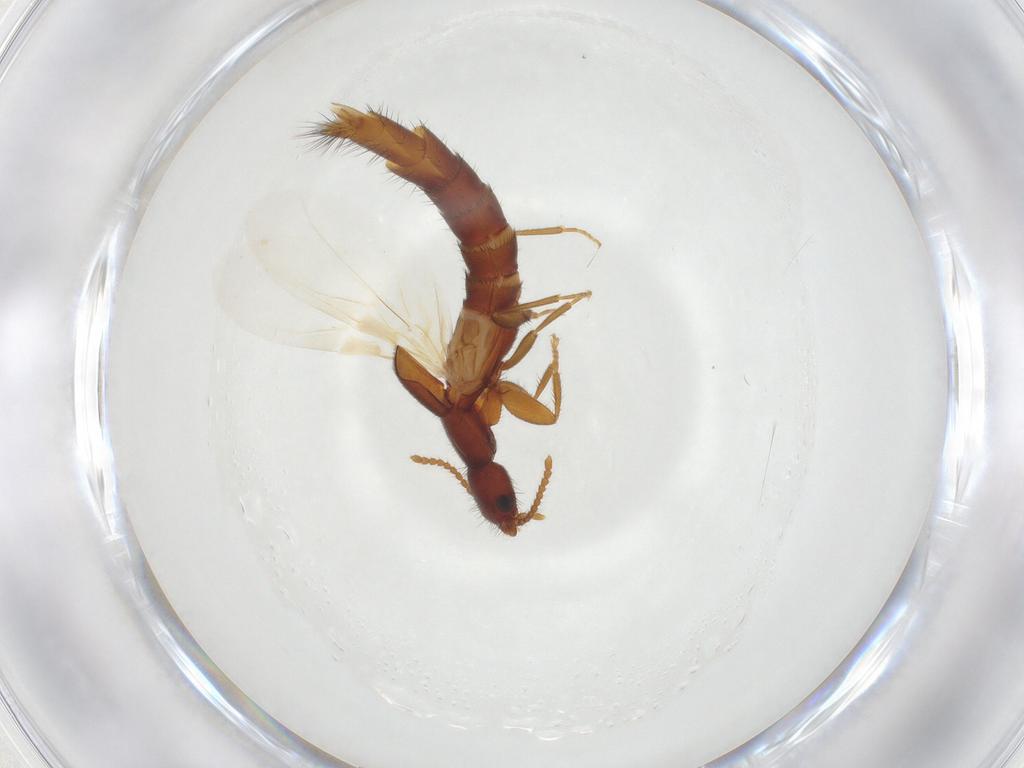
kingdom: Animalia
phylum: Arthropoda
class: Insecta
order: Coleoptera
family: Staphylinidae
